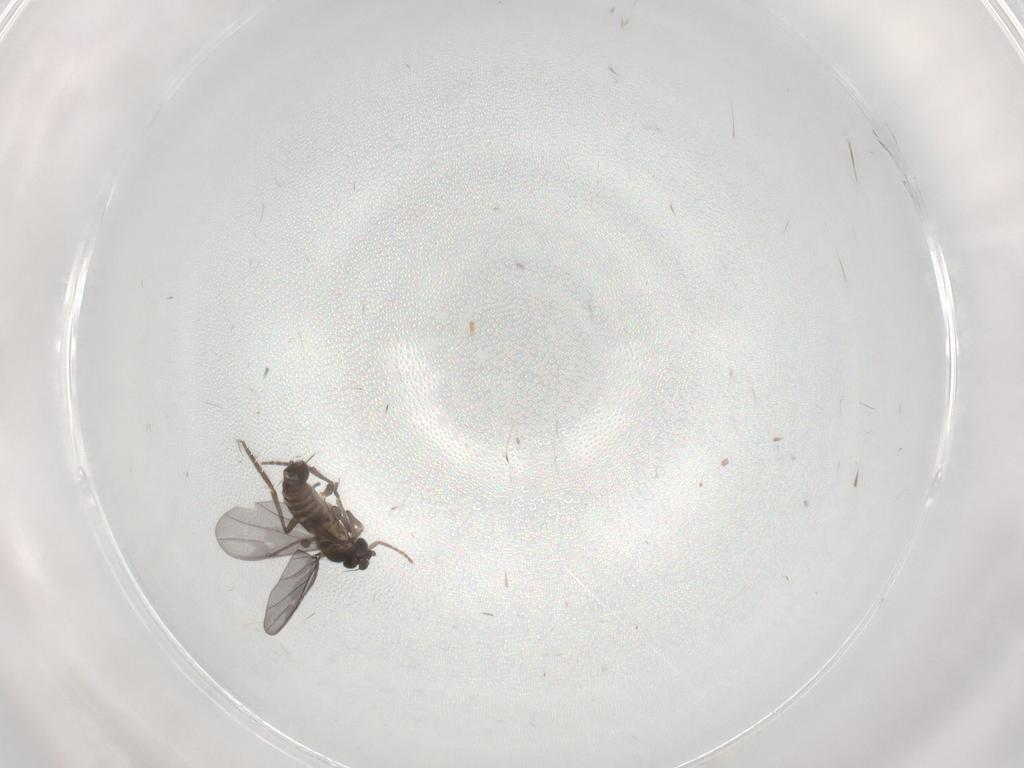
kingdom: Animalia
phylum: Arthropoda
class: Insecta
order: Diptera
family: Phoridae
